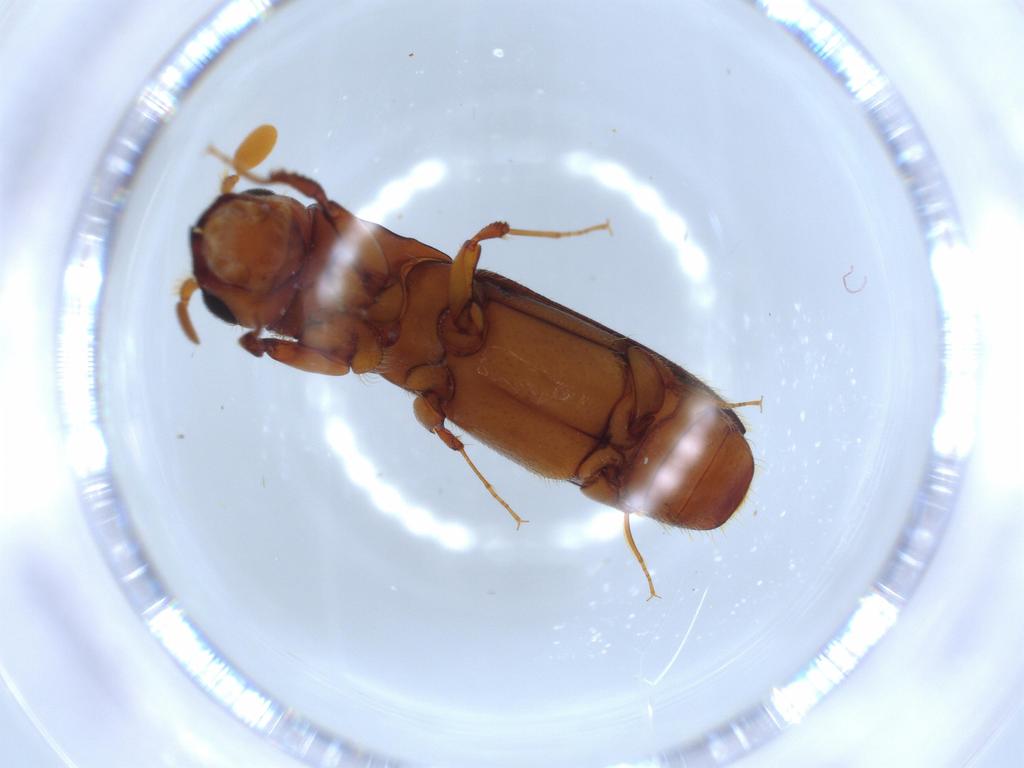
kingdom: Animalia
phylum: Arthropoda
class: Insecta
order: Coleoptera
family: Curculionidae
